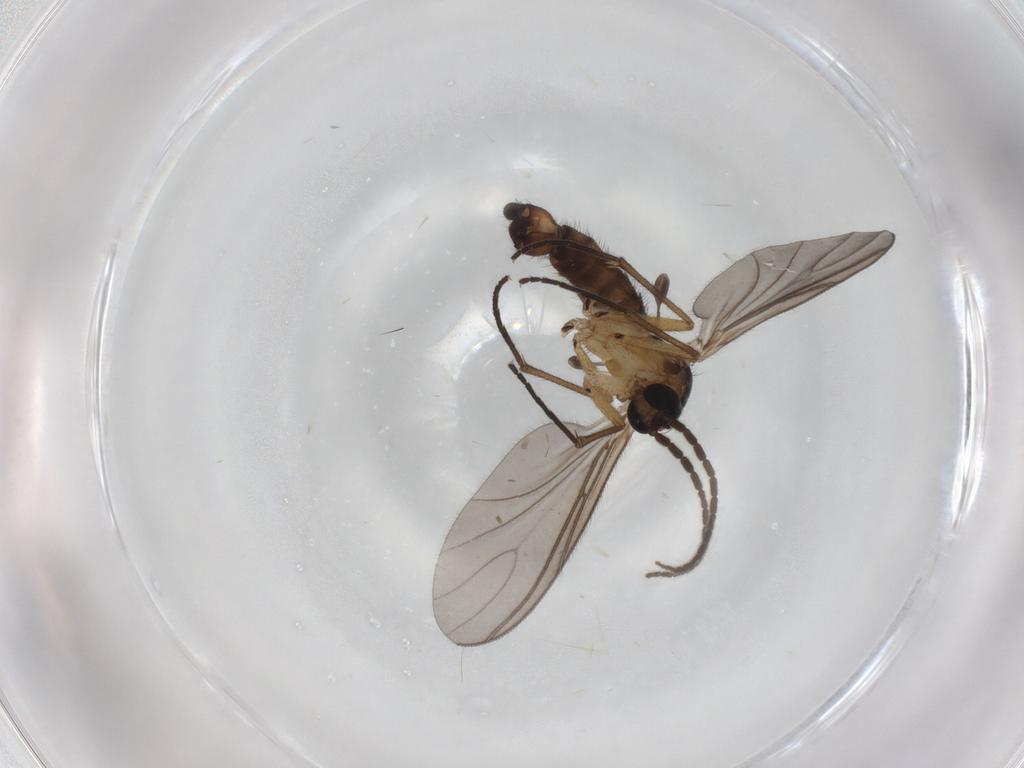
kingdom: Animalia
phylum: Arthropoda
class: Insecta
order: Diptera
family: Sciaridae
